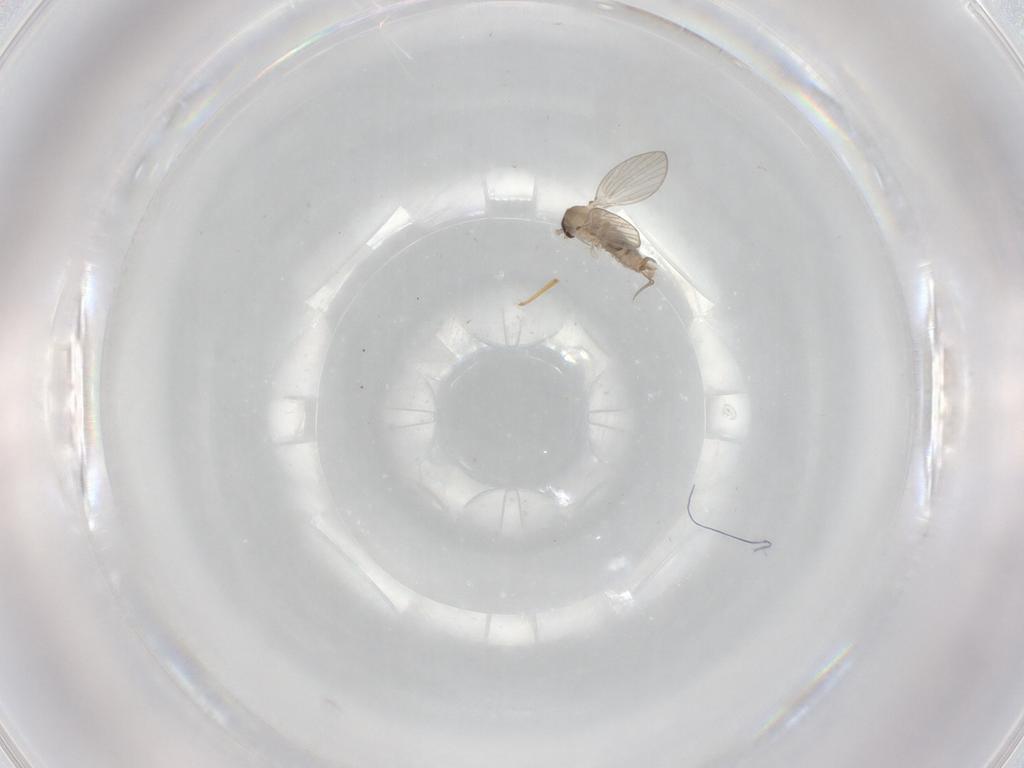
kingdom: Animalia
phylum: Arthropoda
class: Insecta
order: Diptera
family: Psychodidae
